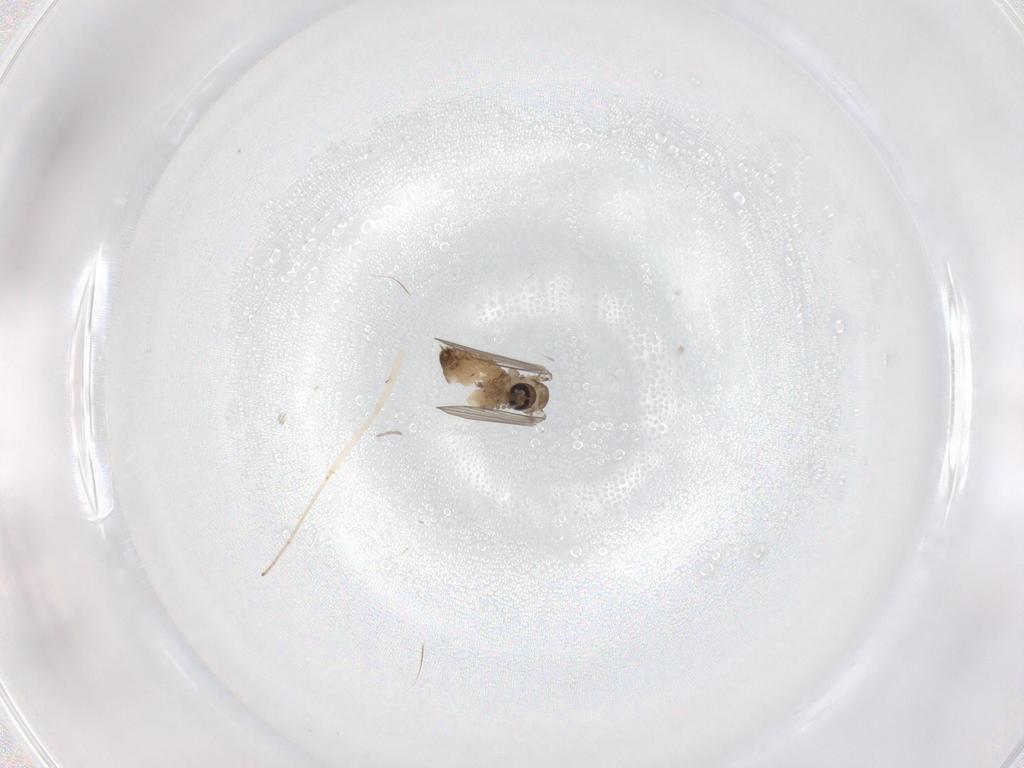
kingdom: Animalia
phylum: Arthropoda
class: Insecta
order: Diptera
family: Psychodidae
